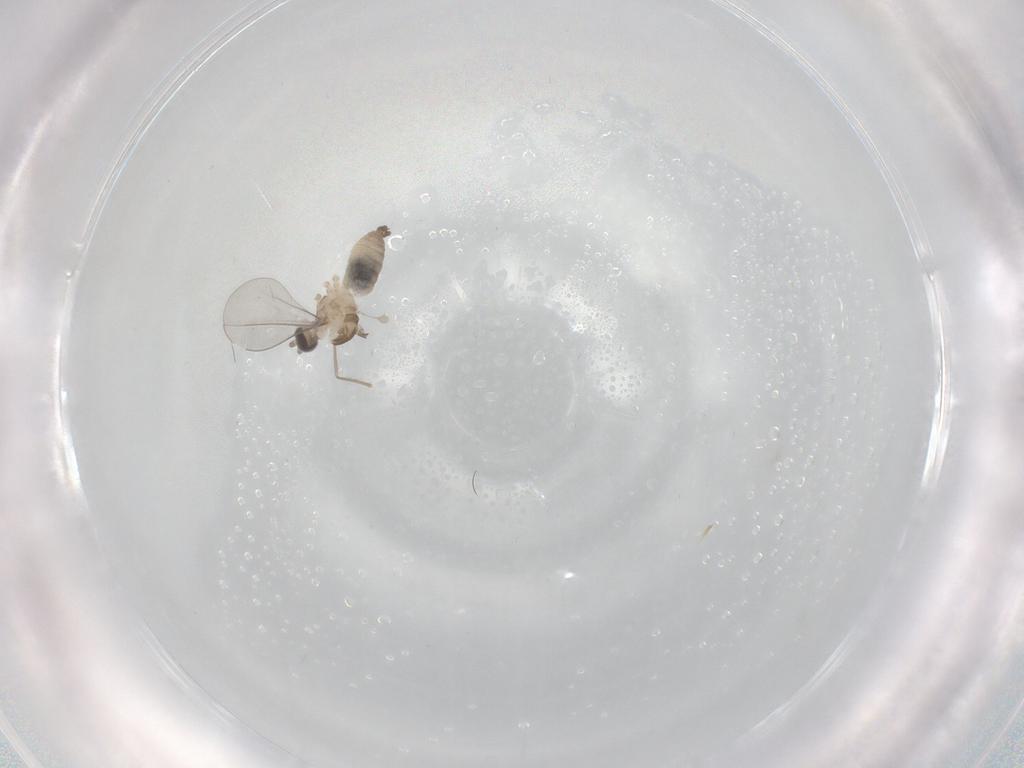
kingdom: Animalia
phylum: Arthropoda
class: Insecta
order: Diptera
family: Cecidomyiidae
